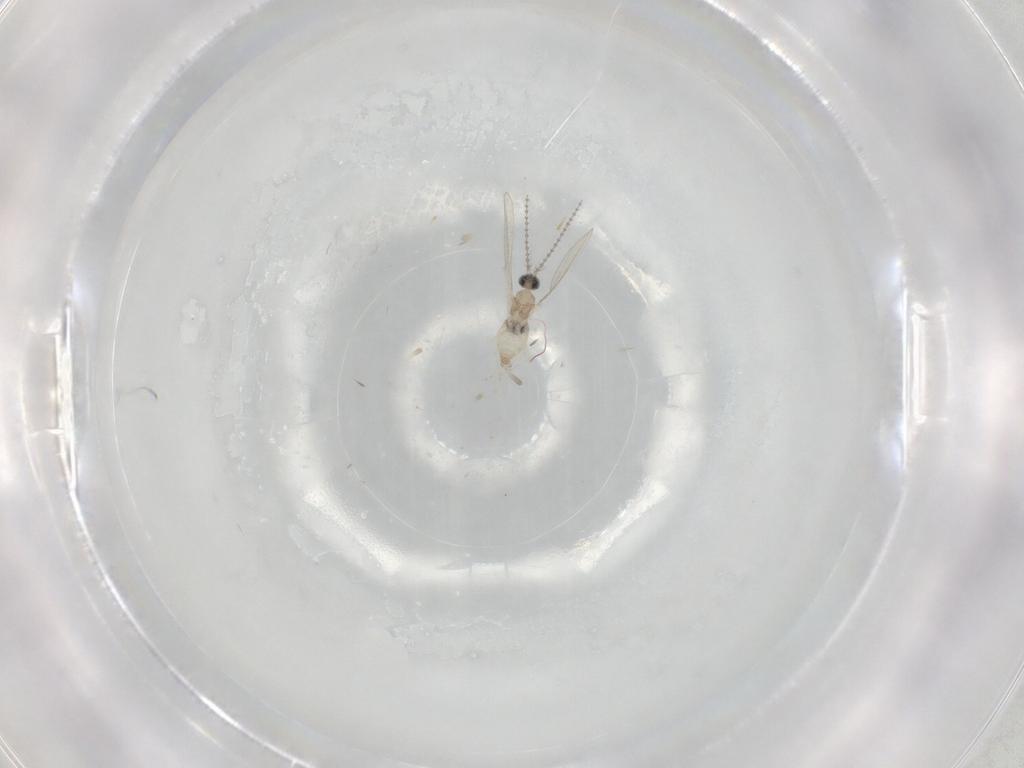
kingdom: Animalia
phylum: Arthropoda
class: Insecta
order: Diptera
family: Cecidomyiidae
